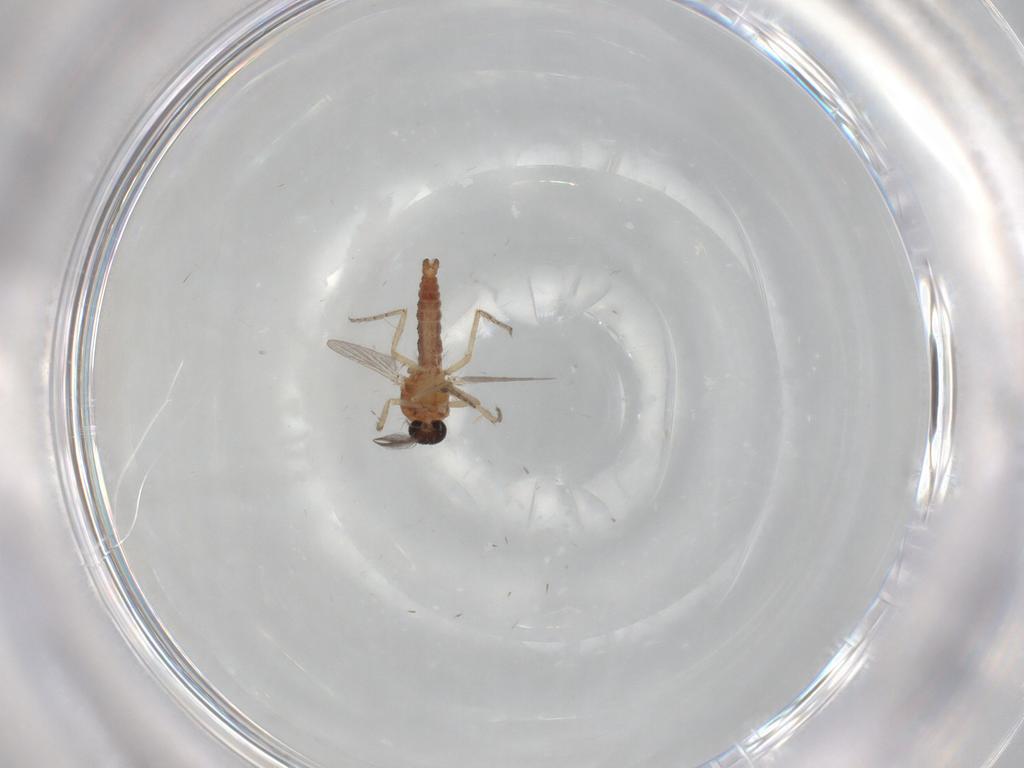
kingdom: Animalia
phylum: Arthropoda
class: Insecta
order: Diptera
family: Ceratopogonidae
